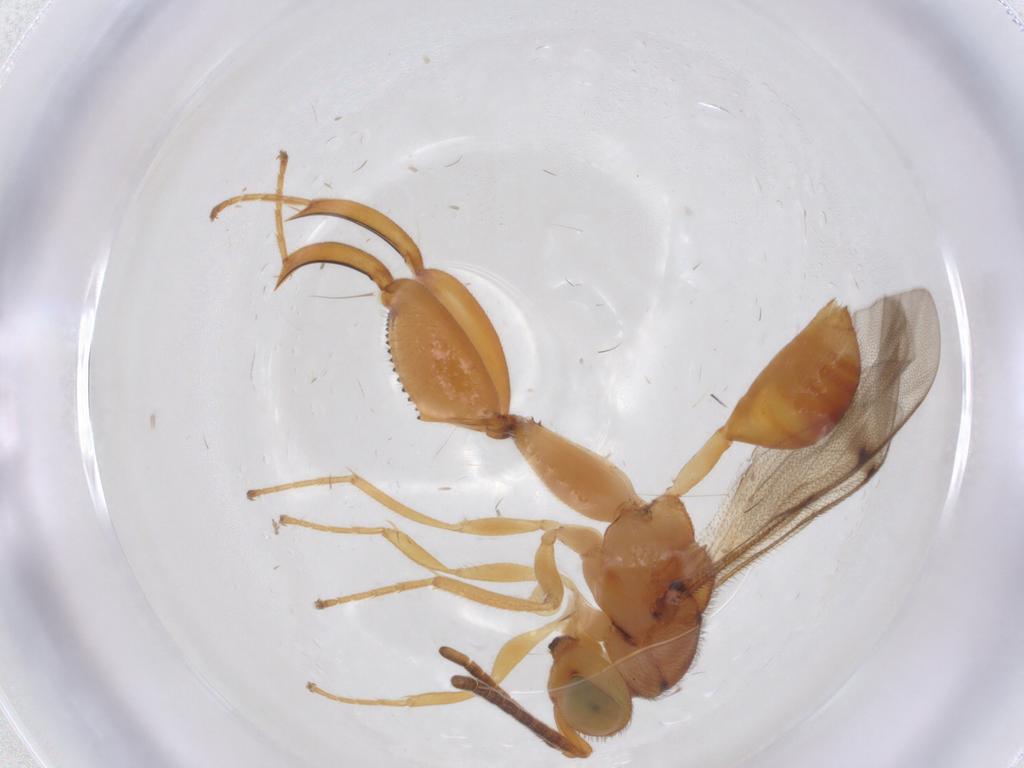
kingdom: Animalia
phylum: Arthropoda
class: Insecta
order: Hymenoptera
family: Chalcididae
